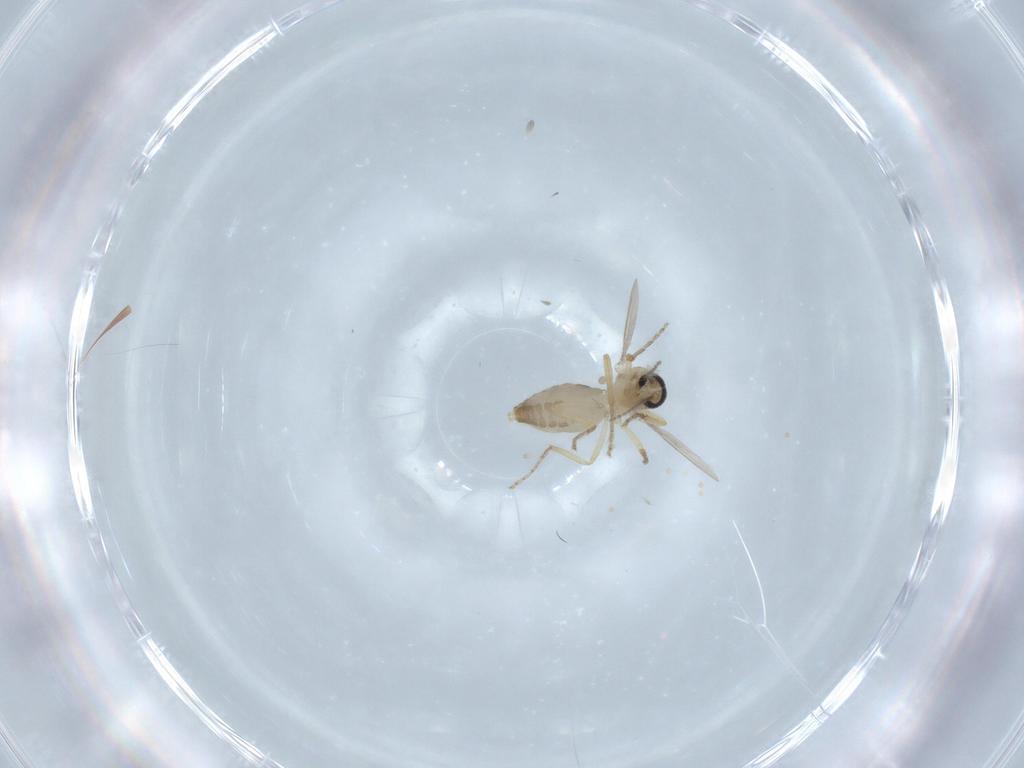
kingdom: Animalia
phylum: Arthropoda
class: Insecta
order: Diptera
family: Ceratopogonidae
